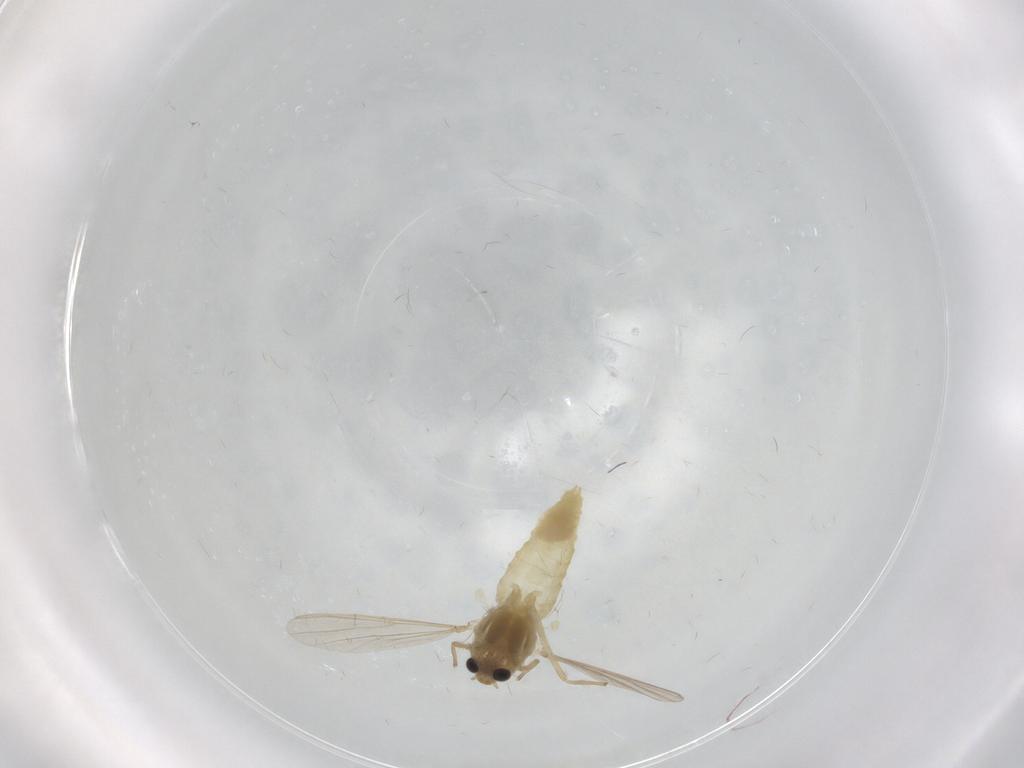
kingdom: Animalia
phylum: Arthropoda
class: Insecta
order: Diptera
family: Chironomidae
